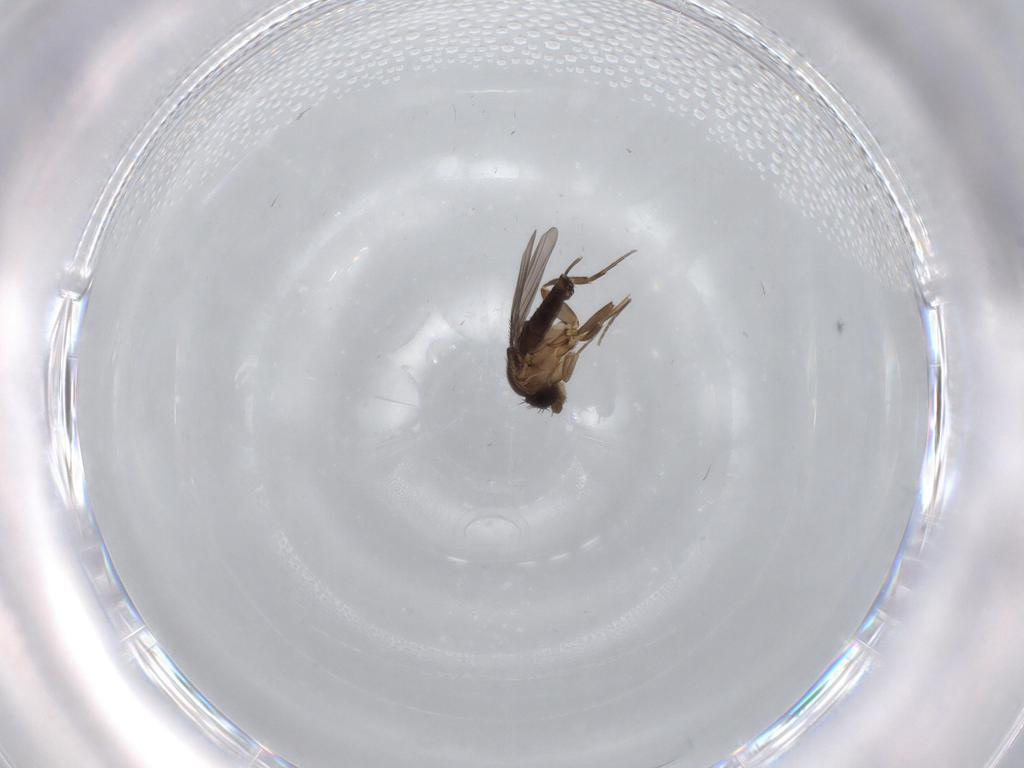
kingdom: Animalia
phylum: Arthropoda
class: Insecta
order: Diptera
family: Phoridae
